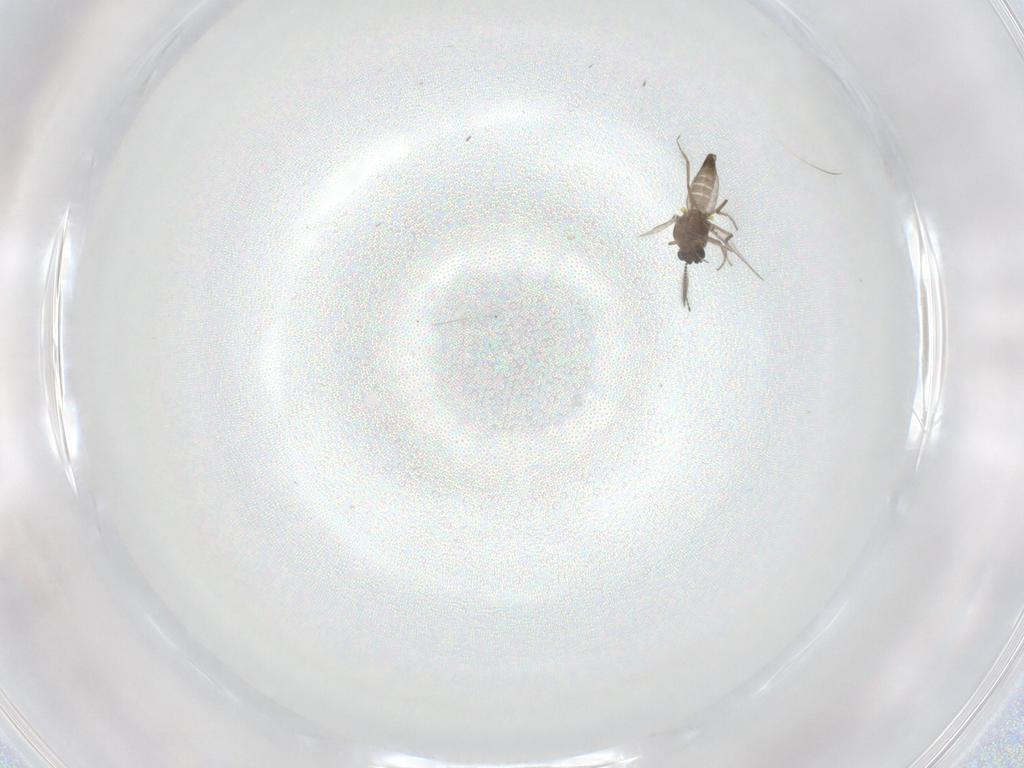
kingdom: Animalia
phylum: Arthropoda
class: Insecta
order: Diptera
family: Ceratopogonidae
